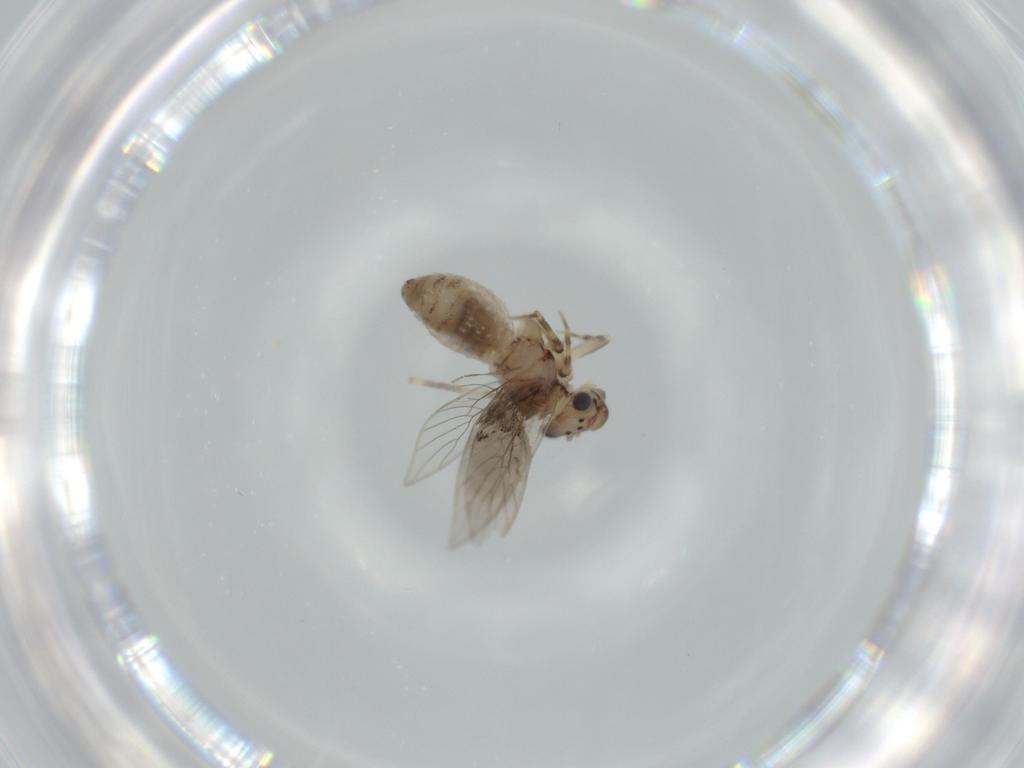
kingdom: Animalia
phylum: Arthropoda
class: Insecta
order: Psocodea
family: Lepidopsocidae
